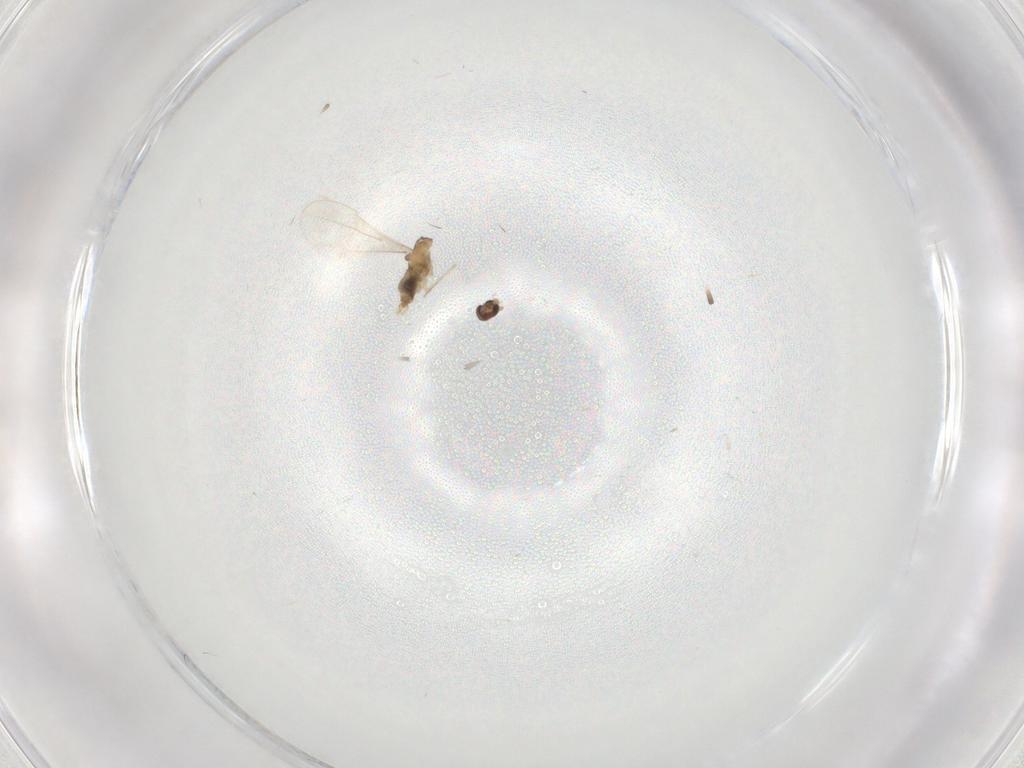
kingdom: Animalia
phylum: Arthropoda
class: Insecta
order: Diptera
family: Cecidomyiidae
